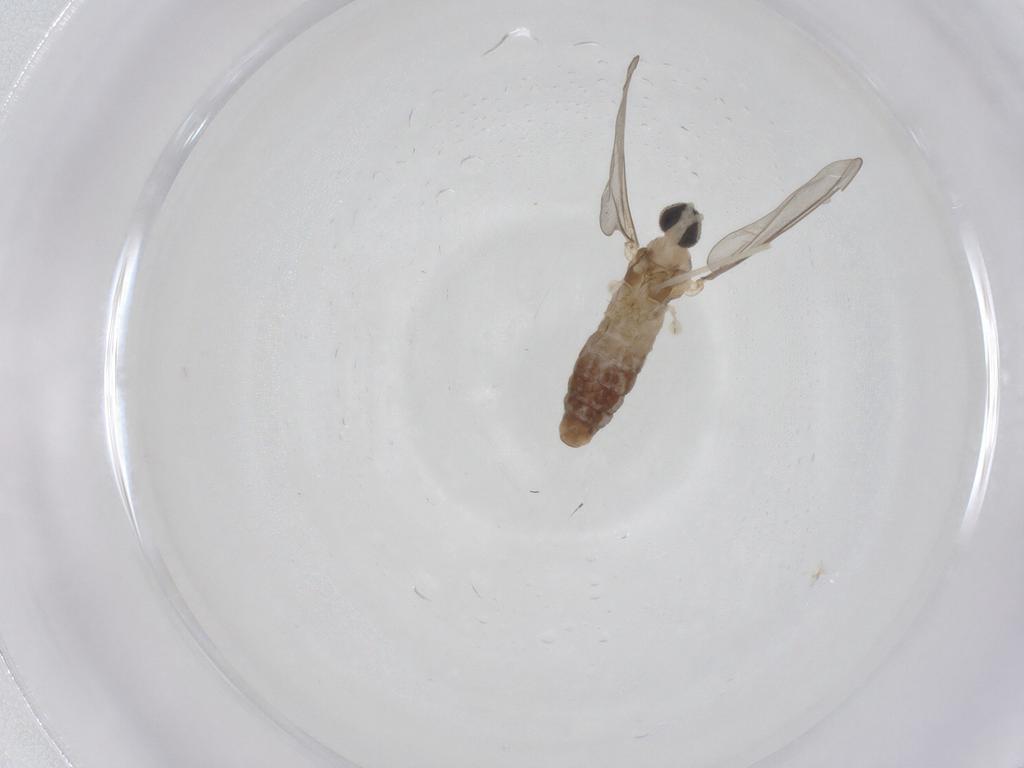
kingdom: Animalia
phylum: Arthropoda
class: Insecta
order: Diptera
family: Cecidomyiidae
